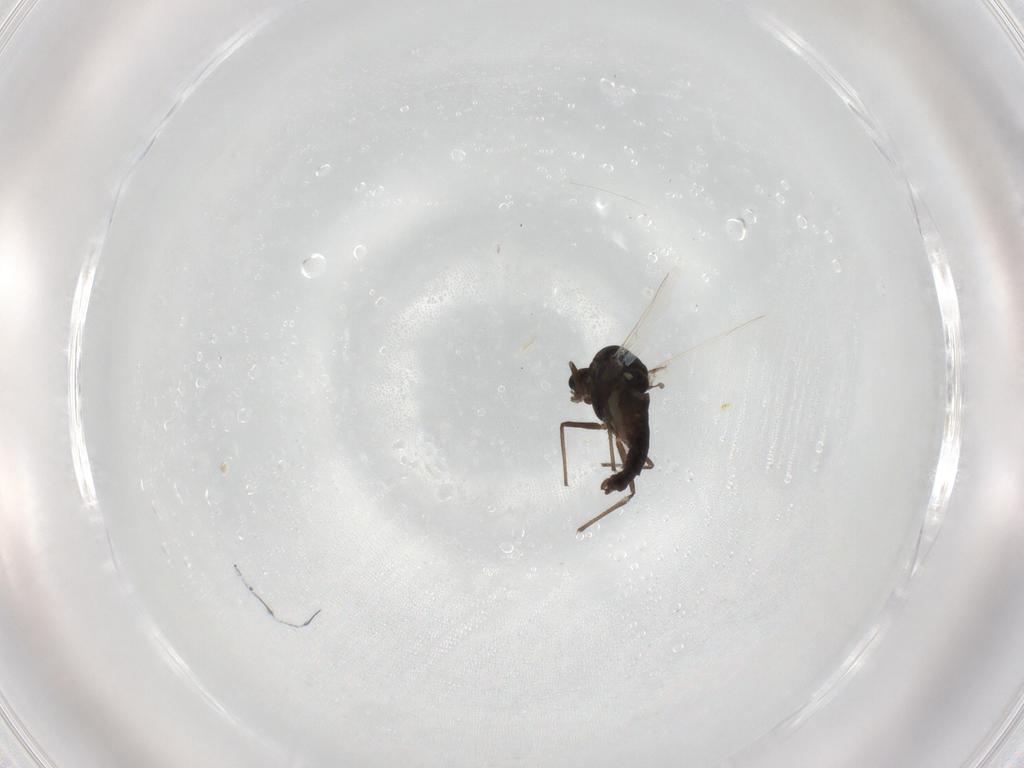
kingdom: Animalia
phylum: Arthropoda
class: Insecta
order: Diptera
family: Chironomidae
